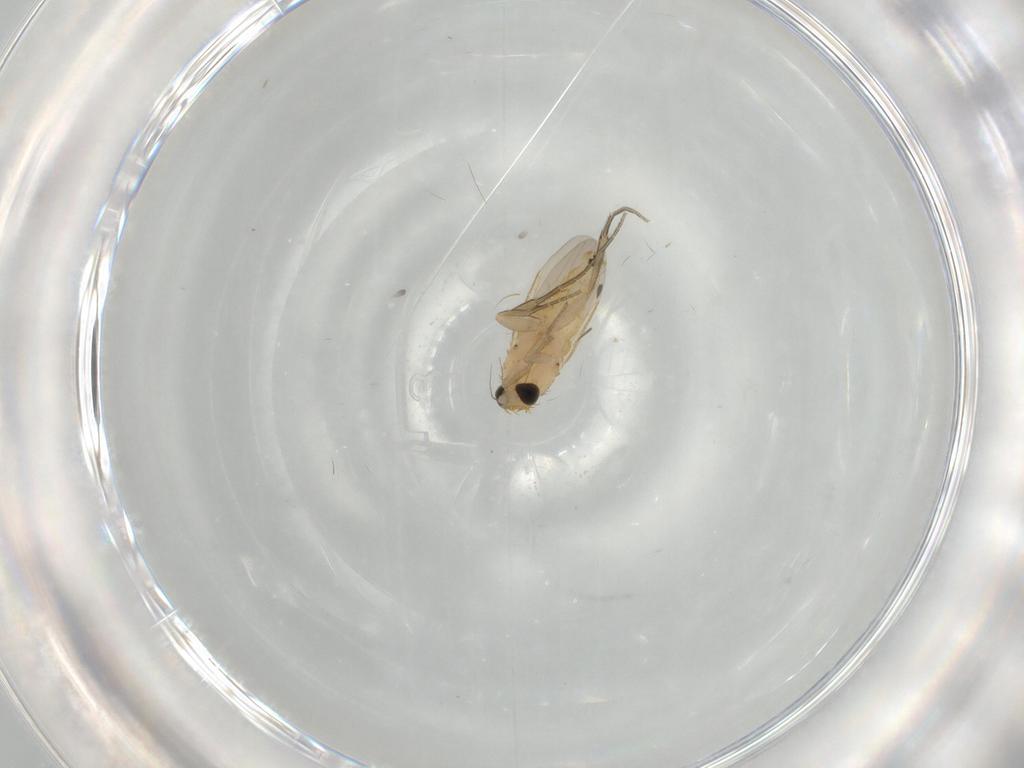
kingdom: Animalia
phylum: Arthropoda
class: Insecta
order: Diptera
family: Phoridae
